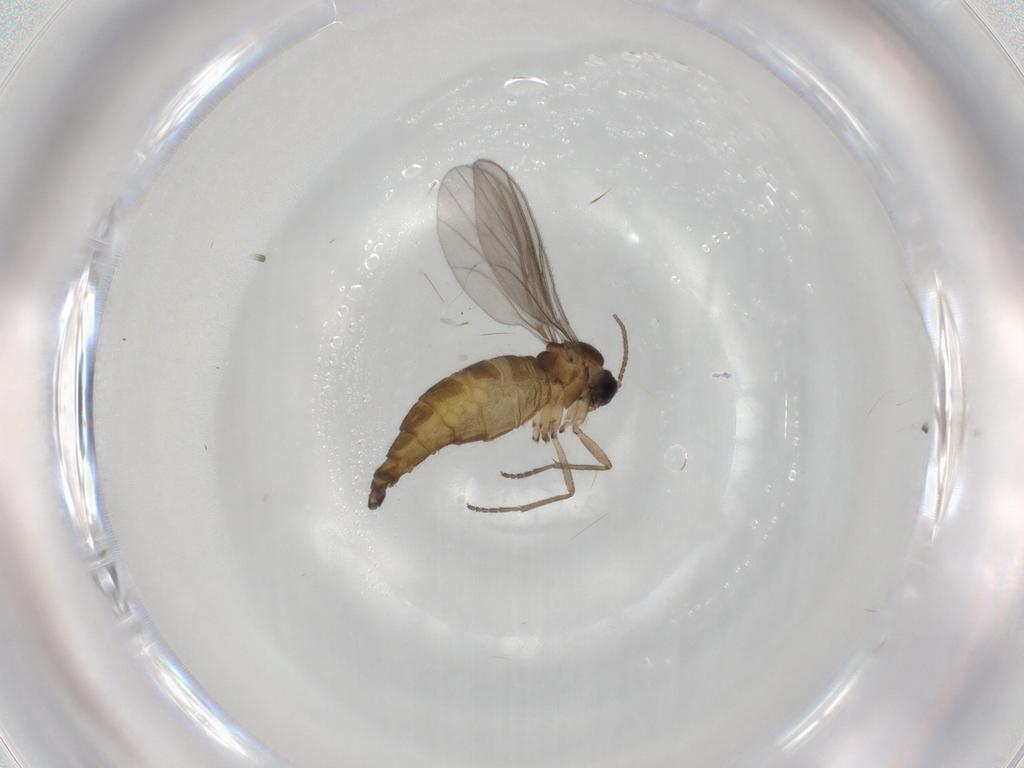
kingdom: Animalia
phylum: Arthropoda
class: Insecta
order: Diptera
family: Sciaridae
